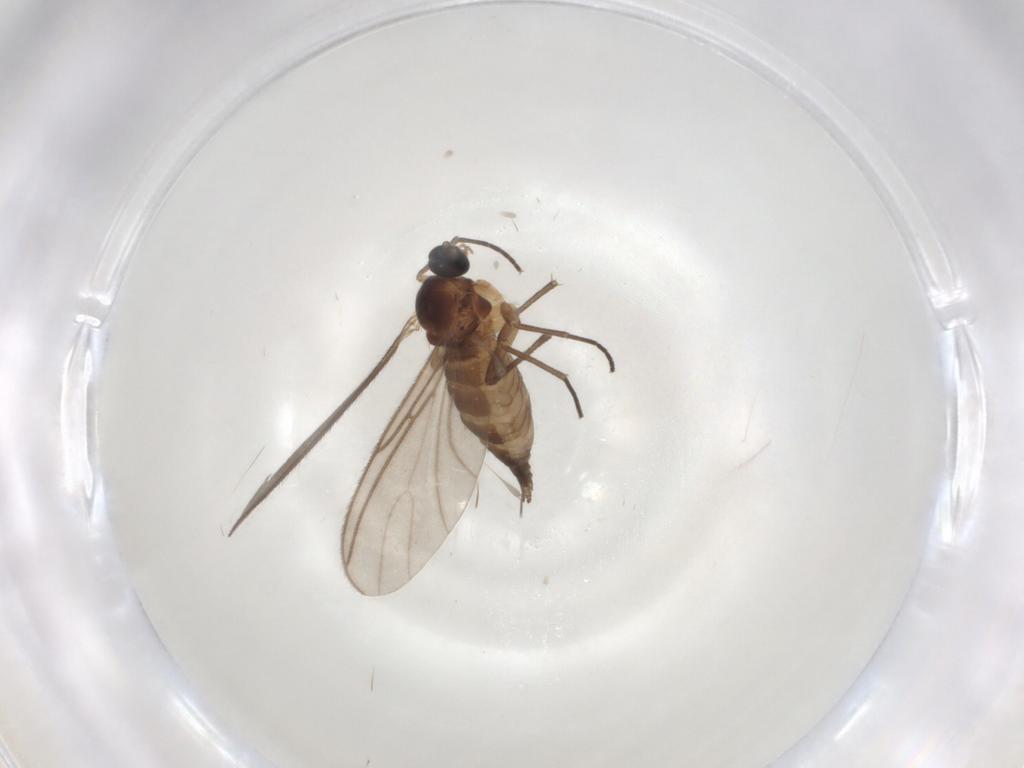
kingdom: Animalia
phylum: Arthropoda
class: Insecta
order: Diptera
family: Sciaridae
